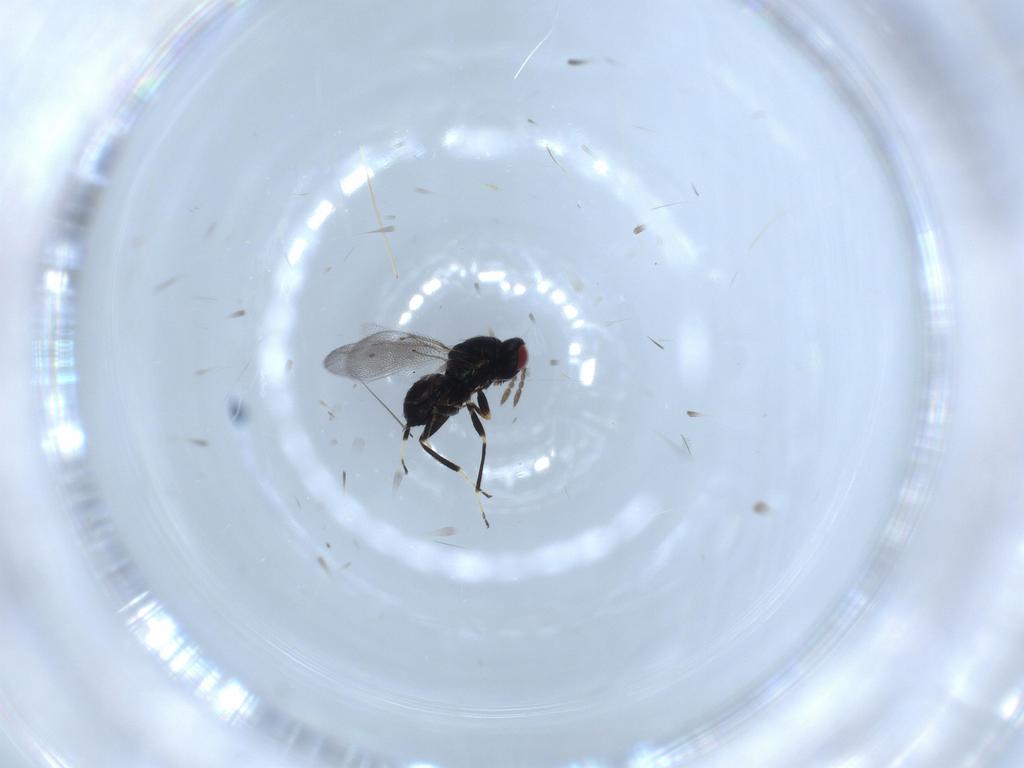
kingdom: Animalia
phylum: Arthropoda
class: Insecta
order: Hymenoptera
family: Eulophidae
